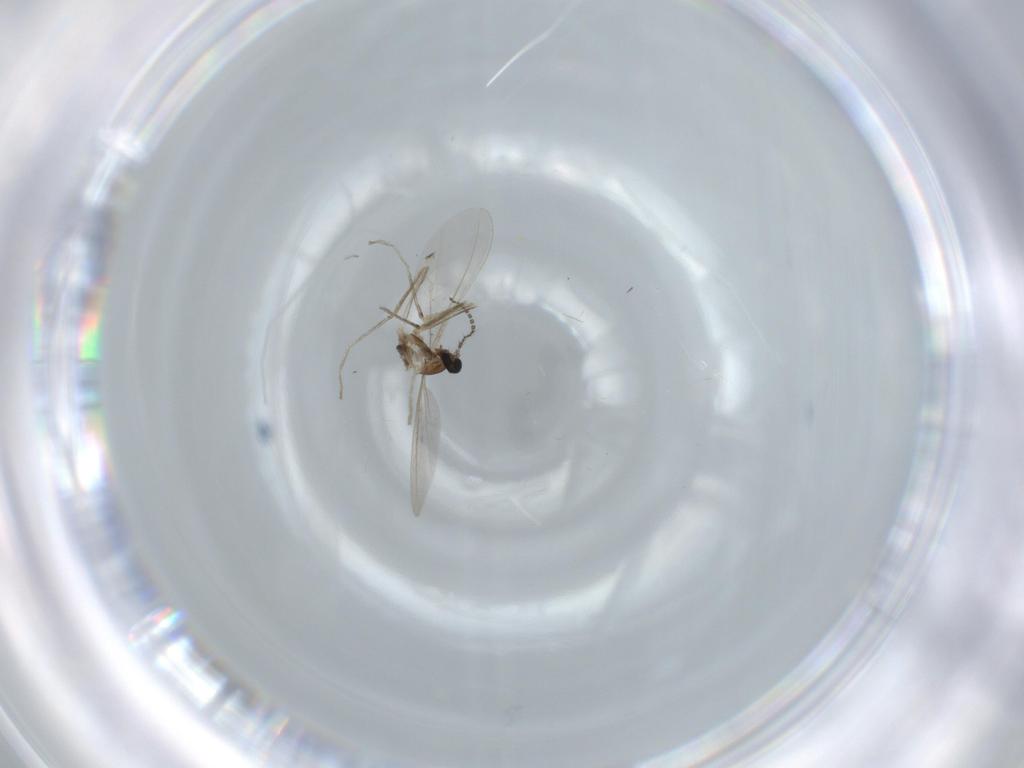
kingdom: Animalia
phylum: Arthropoda
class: Insecta
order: Diptera
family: Cecidomyiidae
